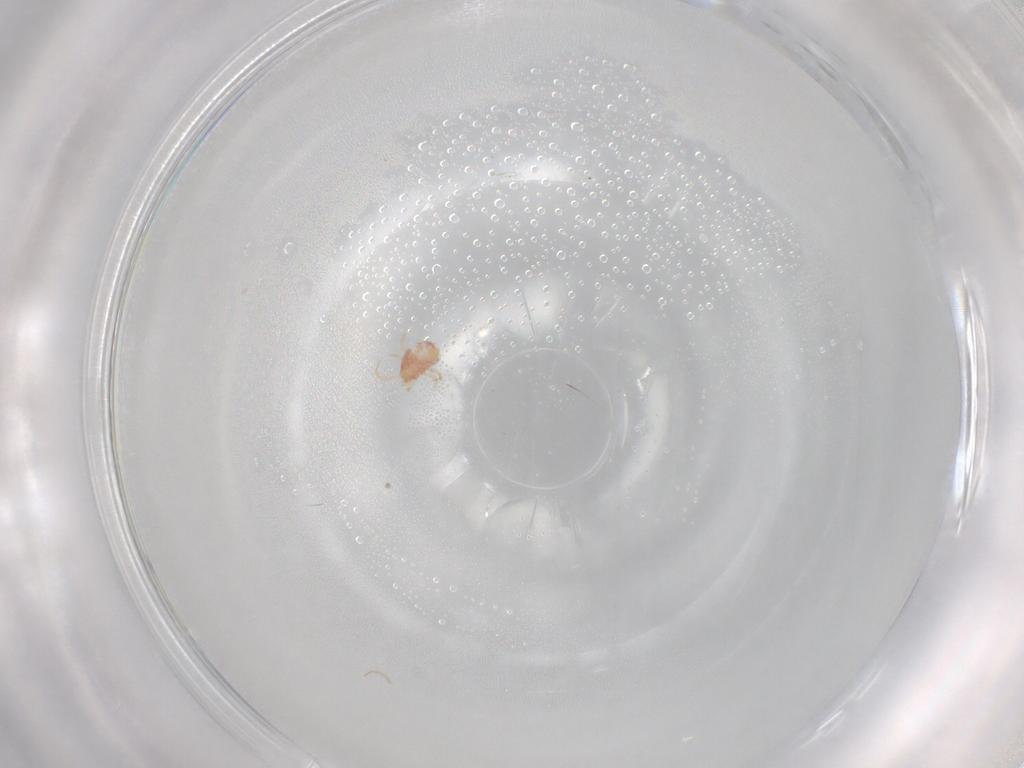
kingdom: Animalia
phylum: Arthropoda
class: Arachnida
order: Mesostigmata
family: Phytoseiidae
